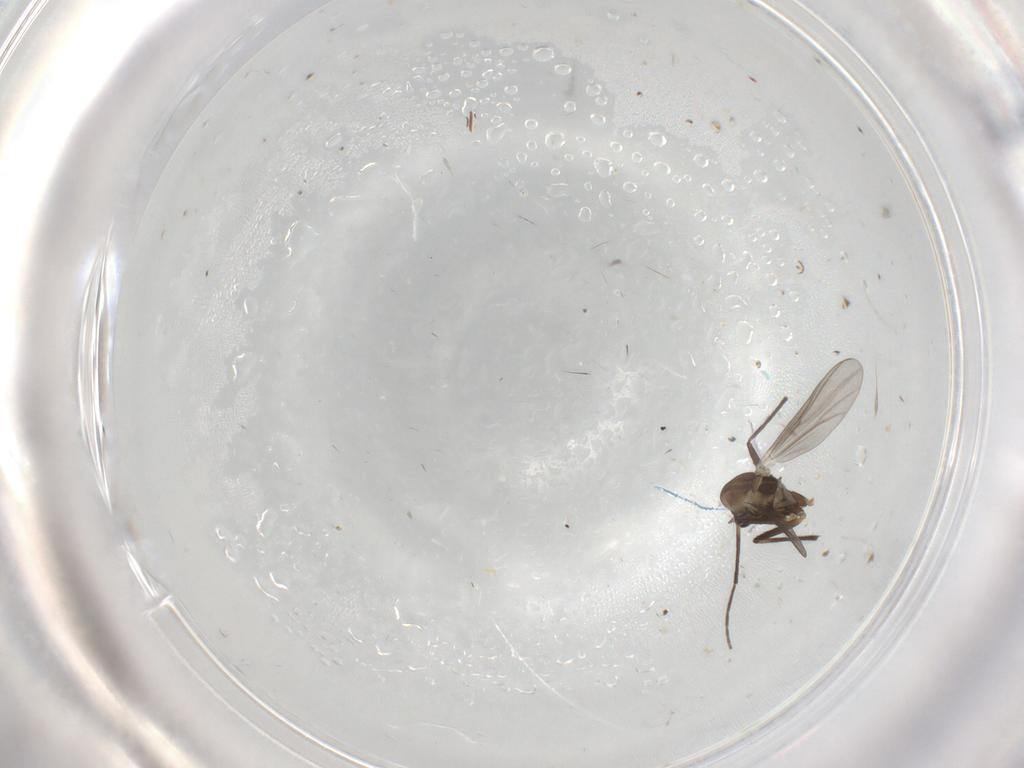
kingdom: Animalia
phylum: Arthropoda
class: Insecta
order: Diptera
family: Chironomidae
